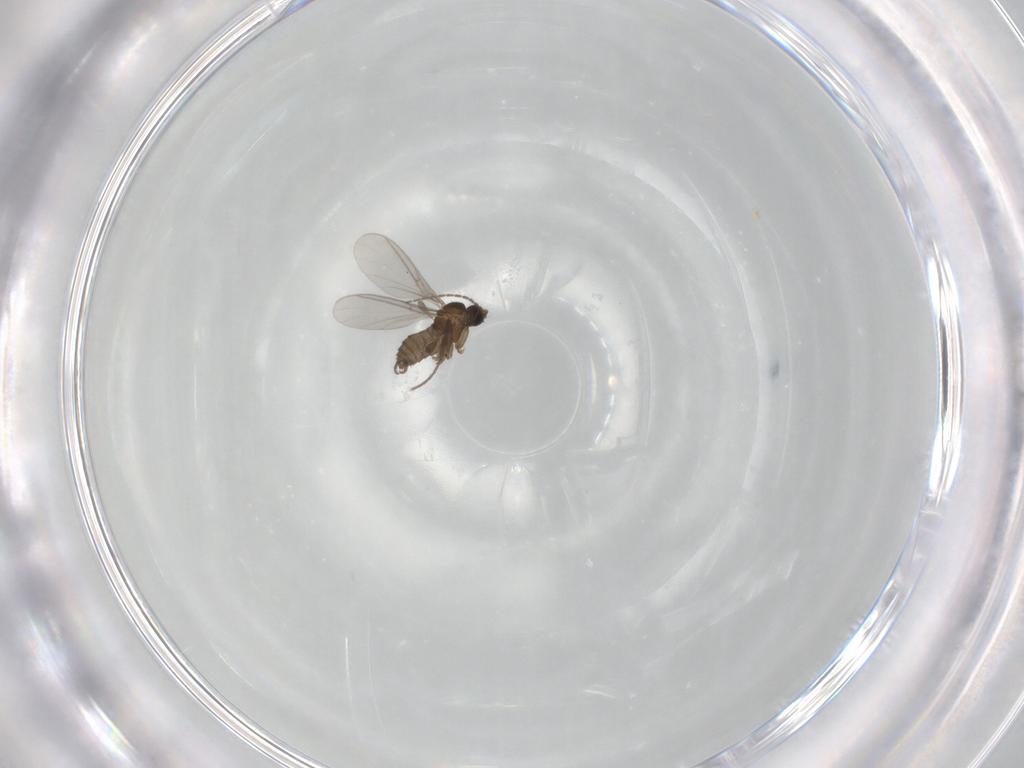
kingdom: Animalia
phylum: Arthropoda
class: Insecta
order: Diptera
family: Sciaridae
